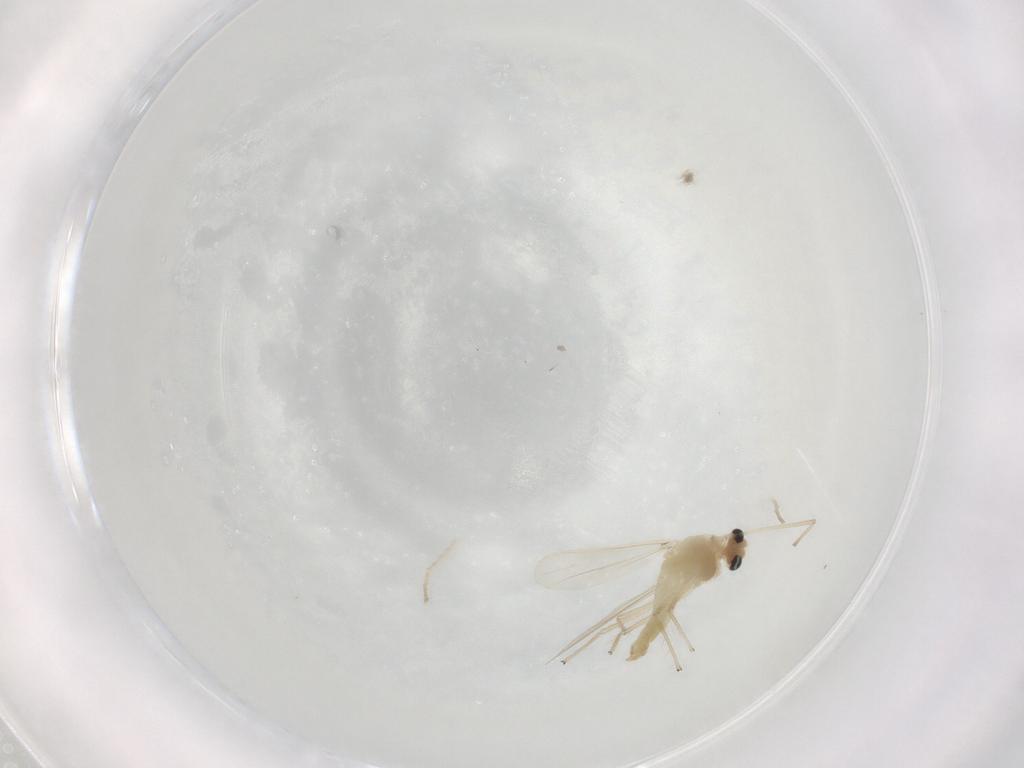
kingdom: Animalia
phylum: Arthropoda
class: Insecta
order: Diptera
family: Chironomidae
